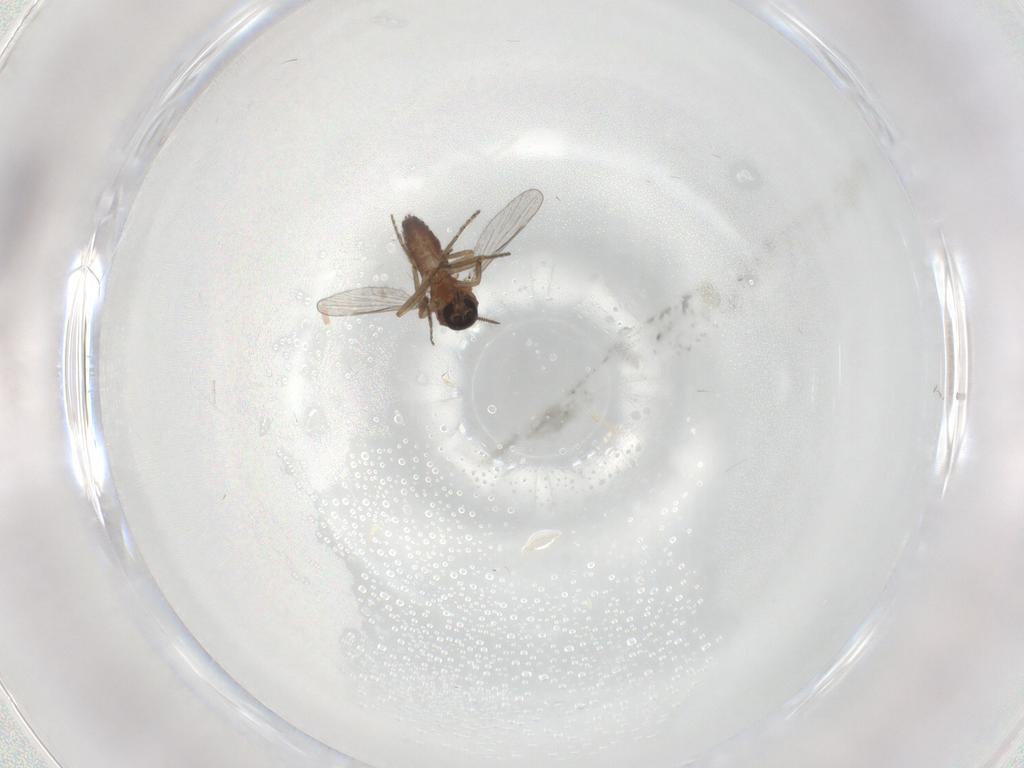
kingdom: Animalia
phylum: Arthropoda
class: Insecta
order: Diptera
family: Ceratopogonidae
